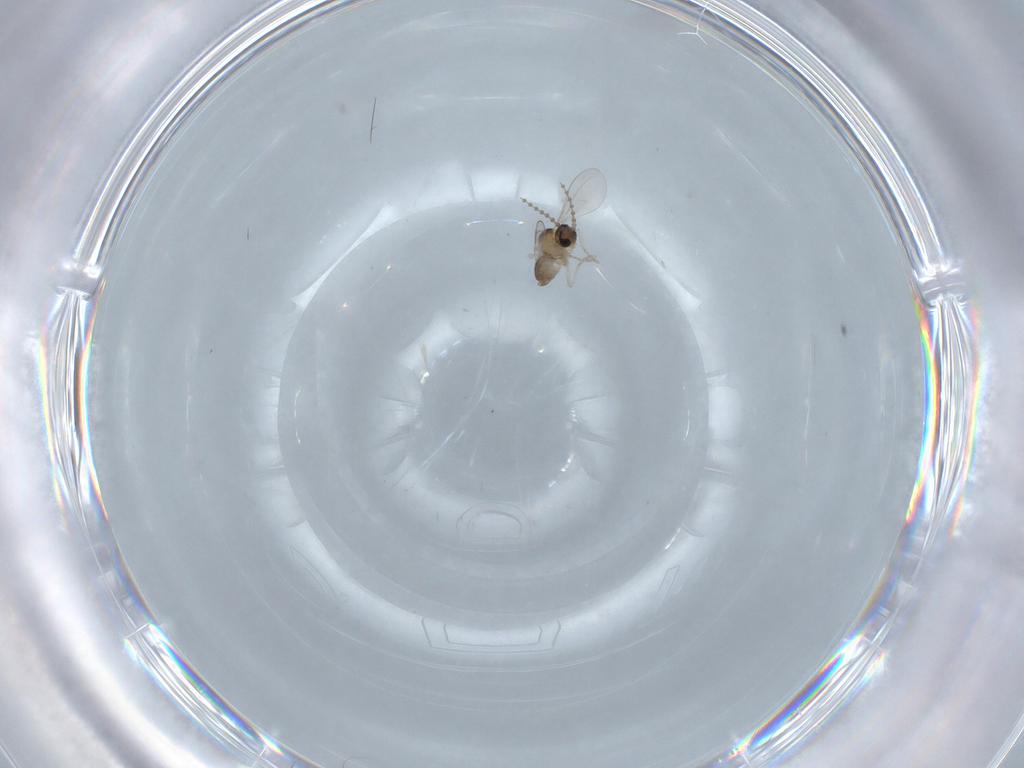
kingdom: Animalia
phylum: Arthropoda
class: Insecta
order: Diptera
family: Cecidomyiidae
